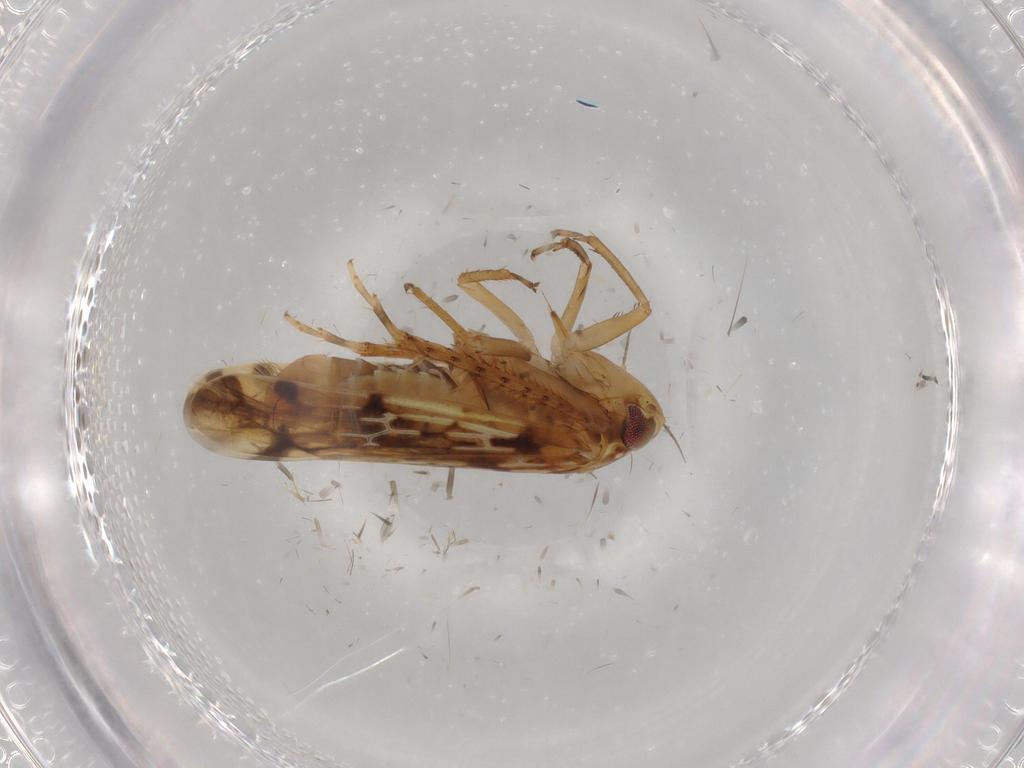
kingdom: Animalia
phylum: Arthropoda
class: Insecta
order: Hemiptera
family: Cicadellidae
